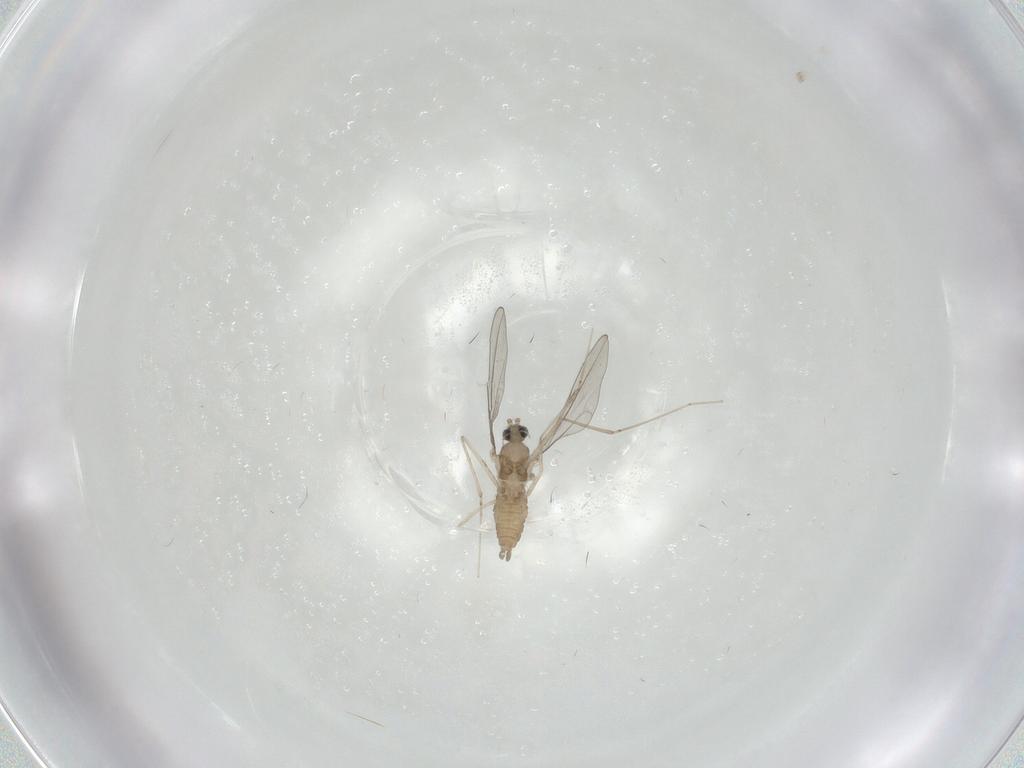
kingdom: Animalia
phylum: Arthropoda
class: Insecta
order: Diptera
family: Cecidomyiidae
